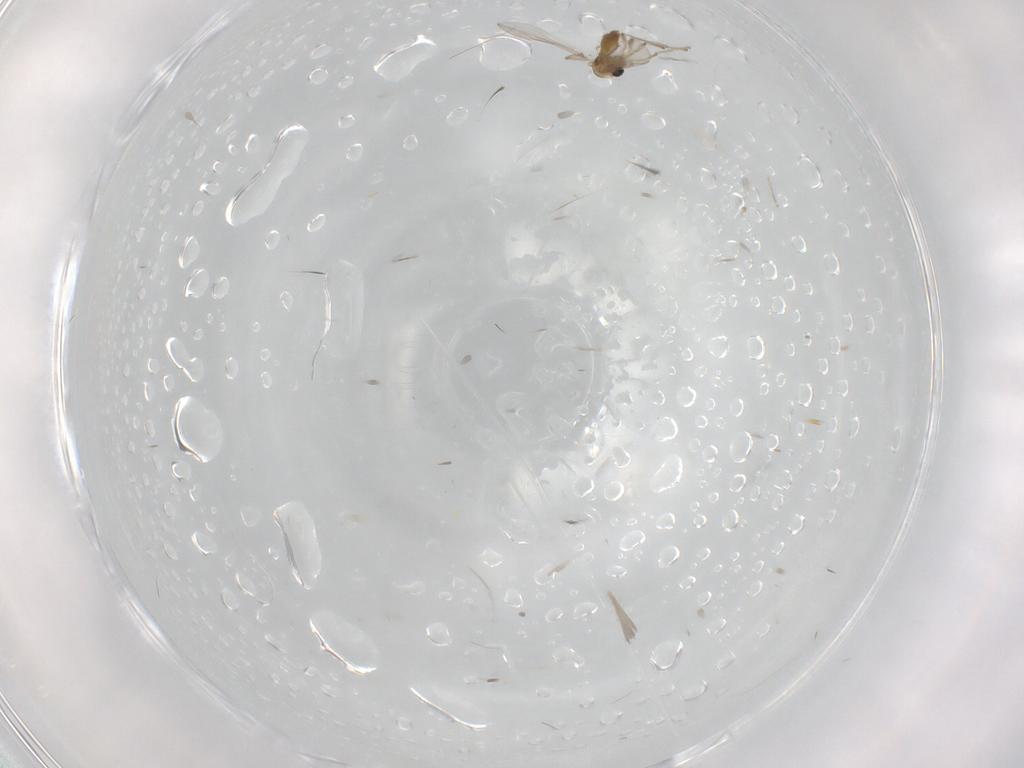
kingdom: Animalia
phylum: Arthropoda
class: Insecta
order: Diptera
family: Chironomidae
